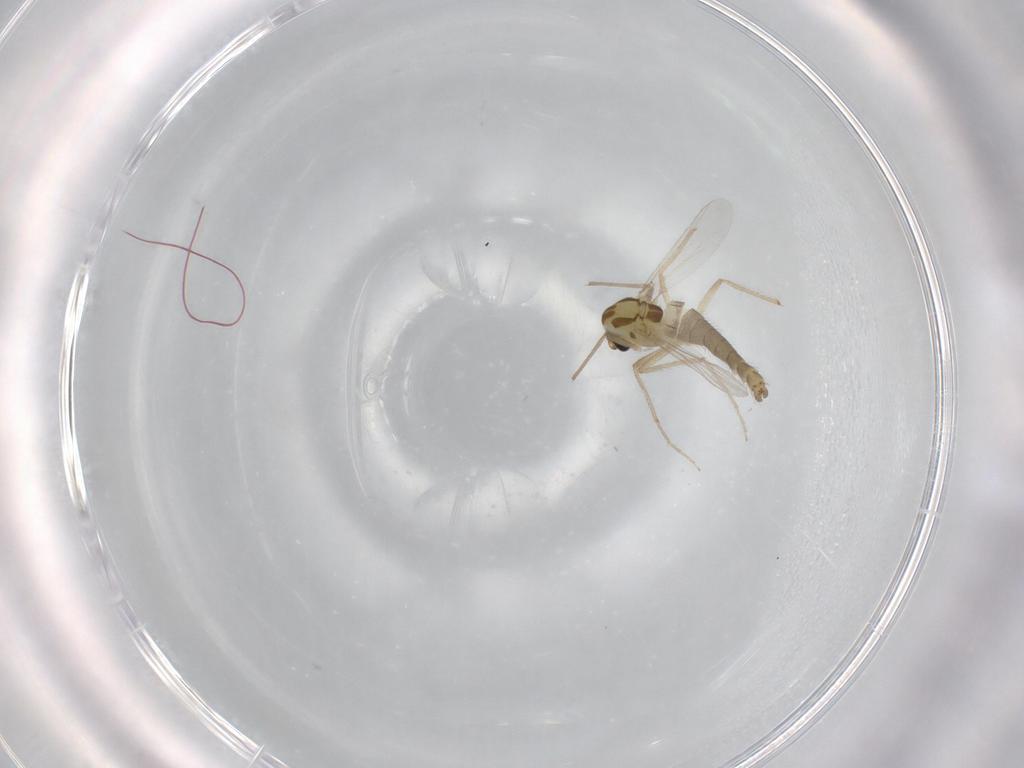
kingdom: Animalia
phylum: Arthropoda
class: Insecta
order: Diptera
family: Chironomidae
